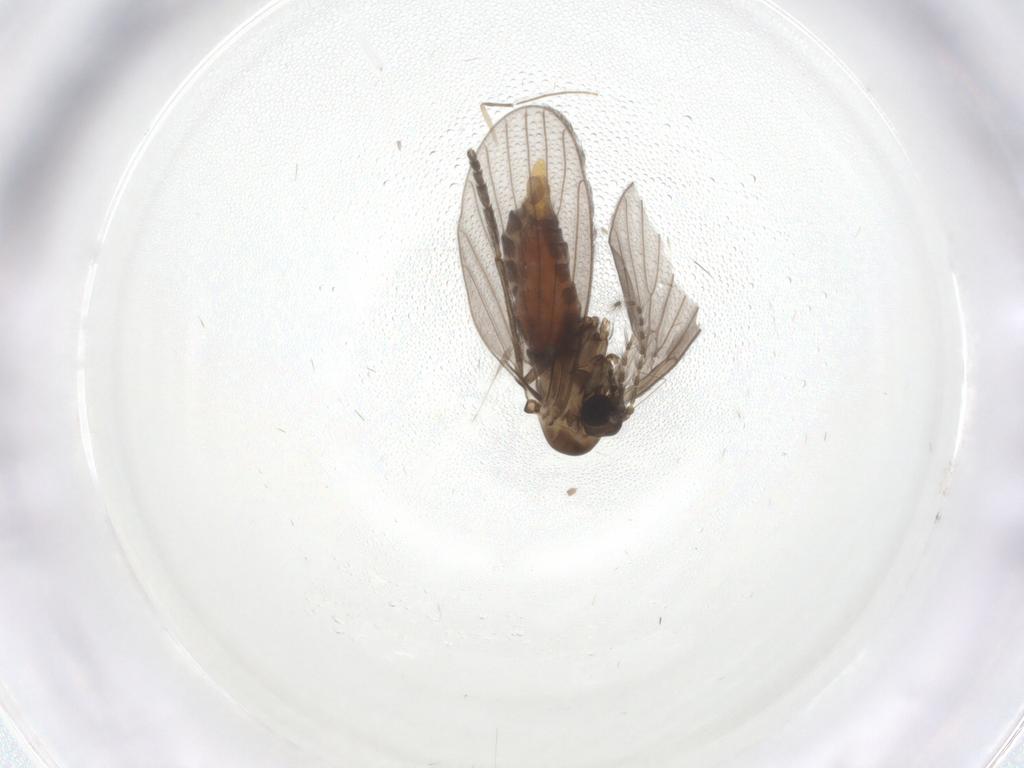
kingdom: Animalia
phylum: Arthropoda
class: Insecta
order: Diptera
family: Psychodidae
